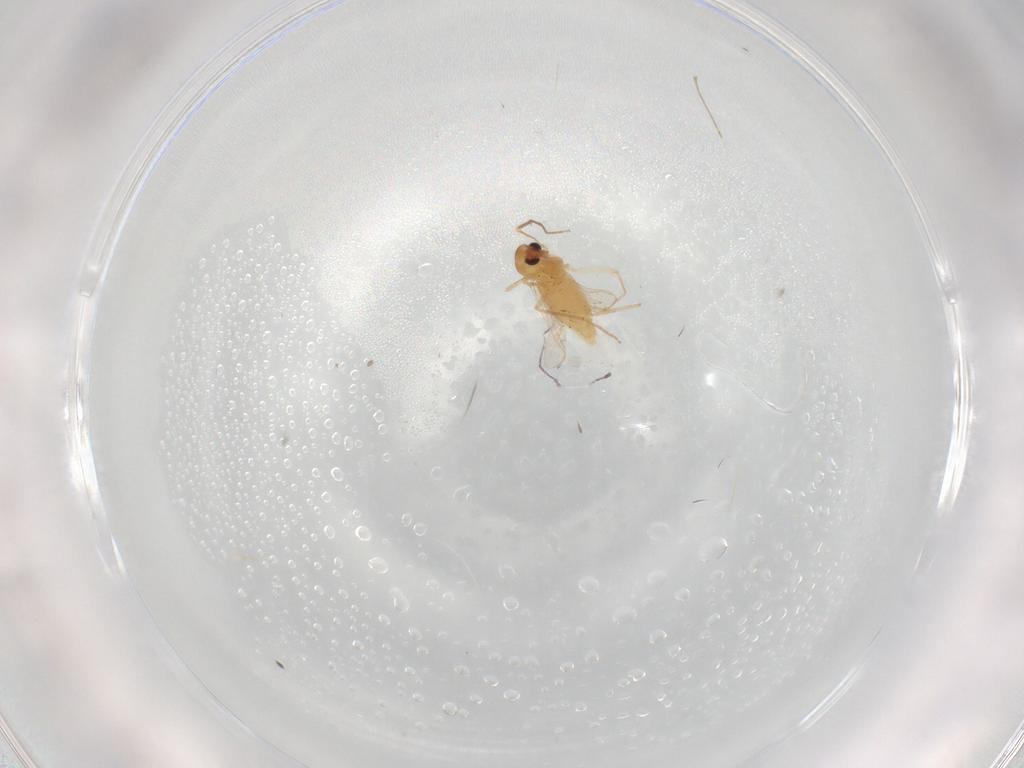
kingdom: Animalia
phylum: Arthropoda
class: Insecta
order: Diptera
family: Chironomidae
